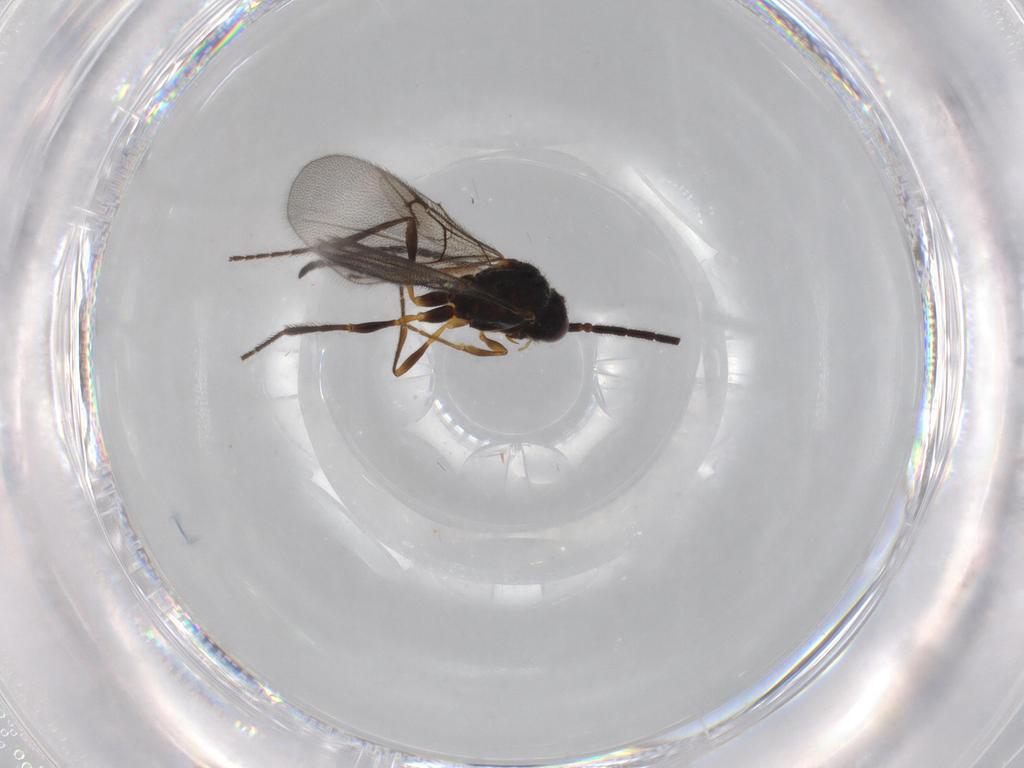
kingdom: Animalia
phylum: Arthropoda
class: Insecta
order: Hymenoptera
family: Diapriidae
